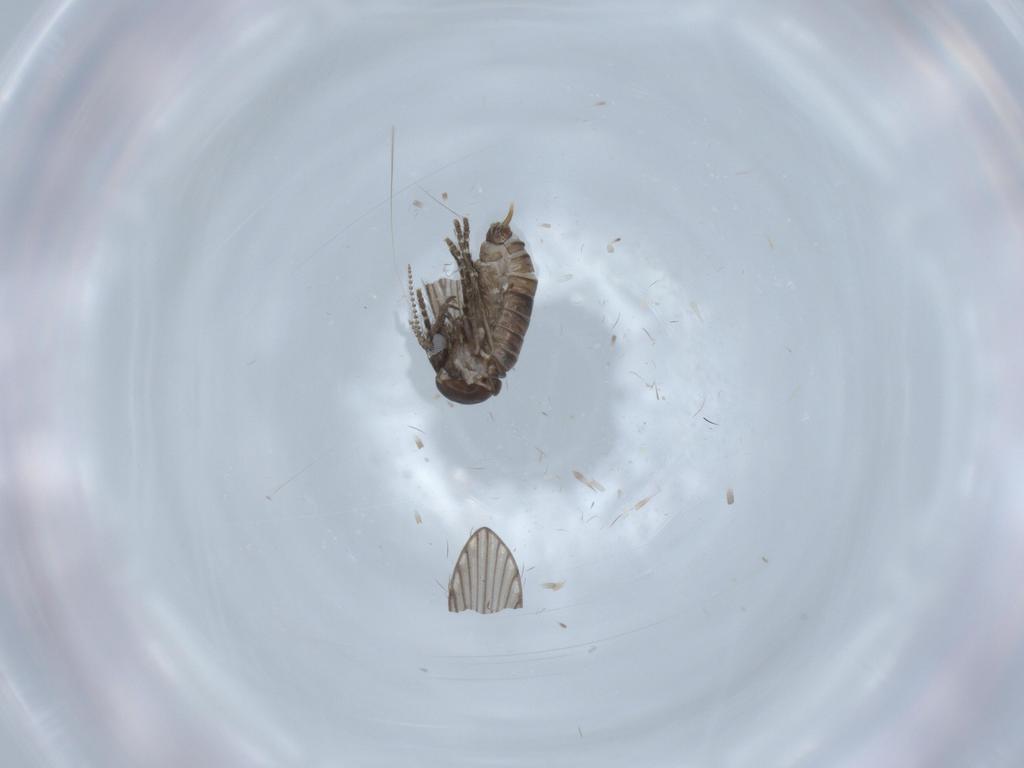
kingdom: Animalia
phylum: Arthropoda
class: Insecta
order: Diptera
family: Psychodidae
